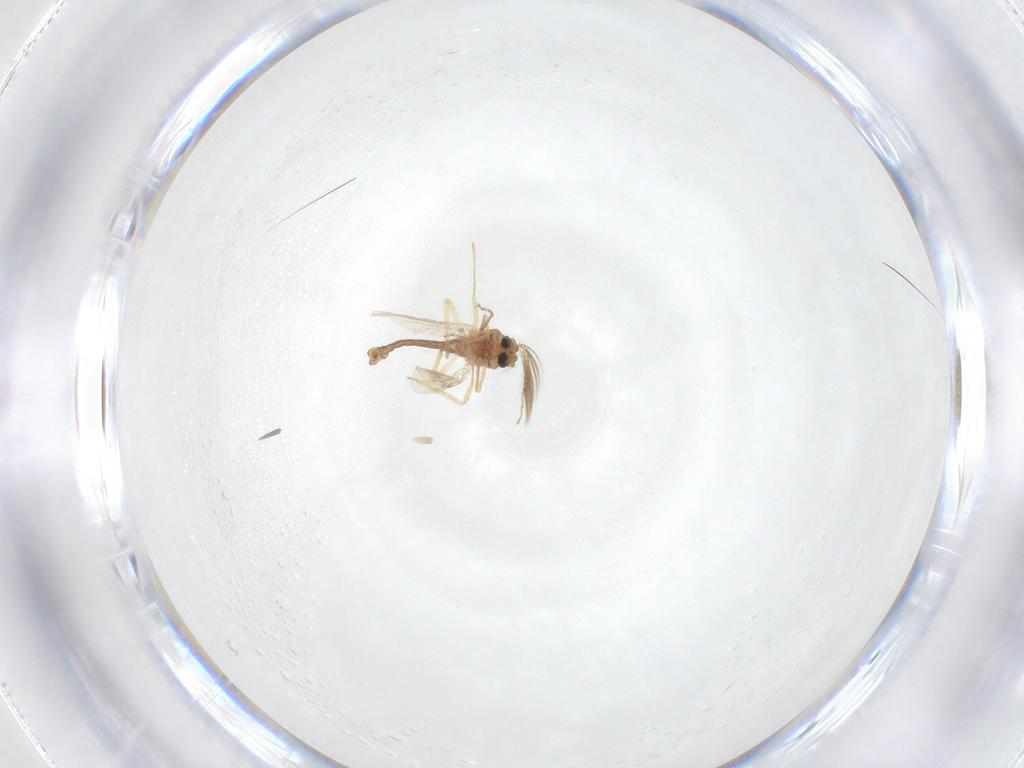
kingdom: Animalia
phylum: Arthropoda
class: Insecta
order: Diptera
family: Ceratopogonidae
